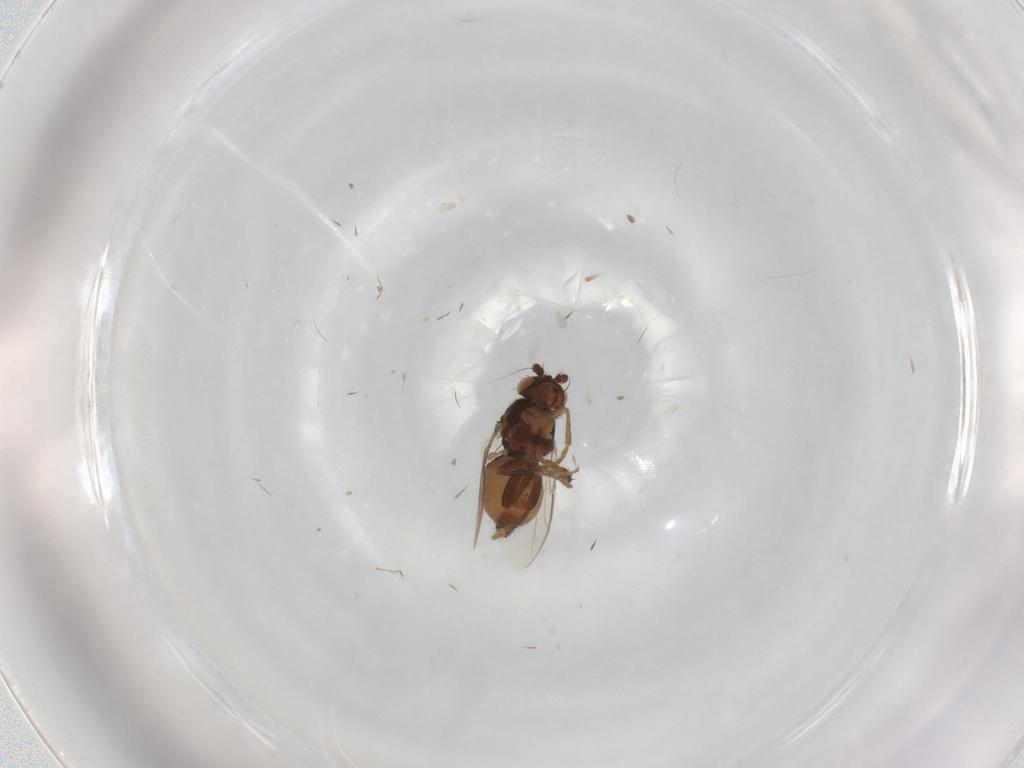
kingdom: Animalia
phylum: Arthropoda
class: Insecta
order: Diptera
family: Sphaeroceridae
